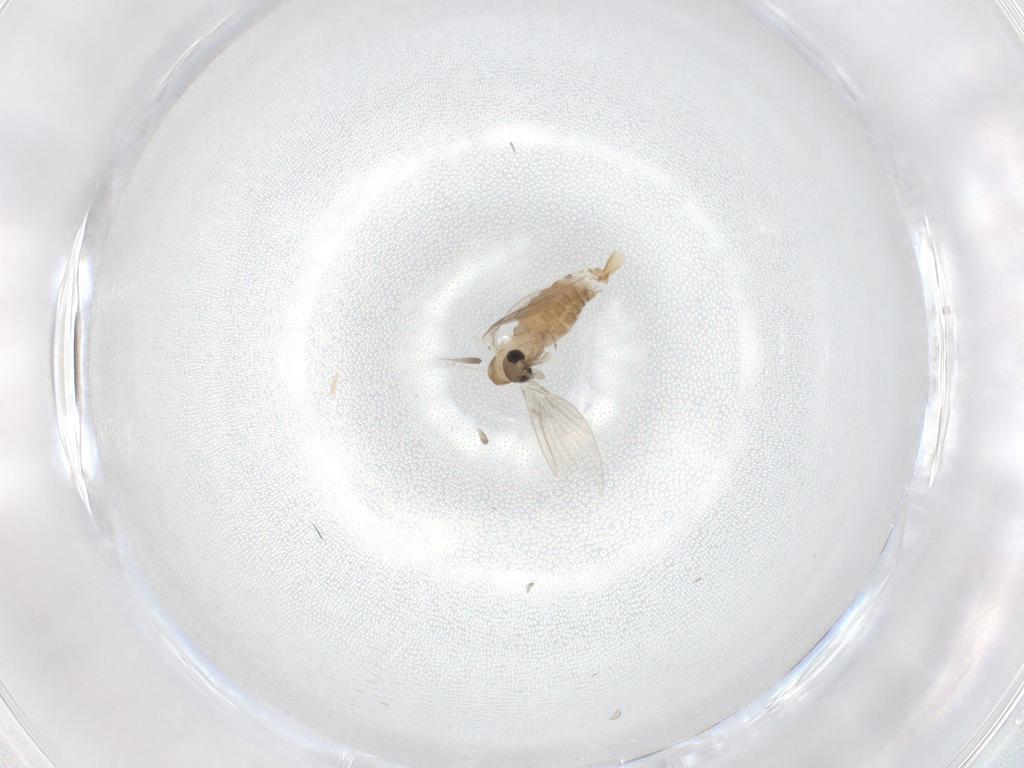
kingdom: Animalia
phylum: Arthropoda
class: Insecta
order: Diptera
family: Psychodidae
